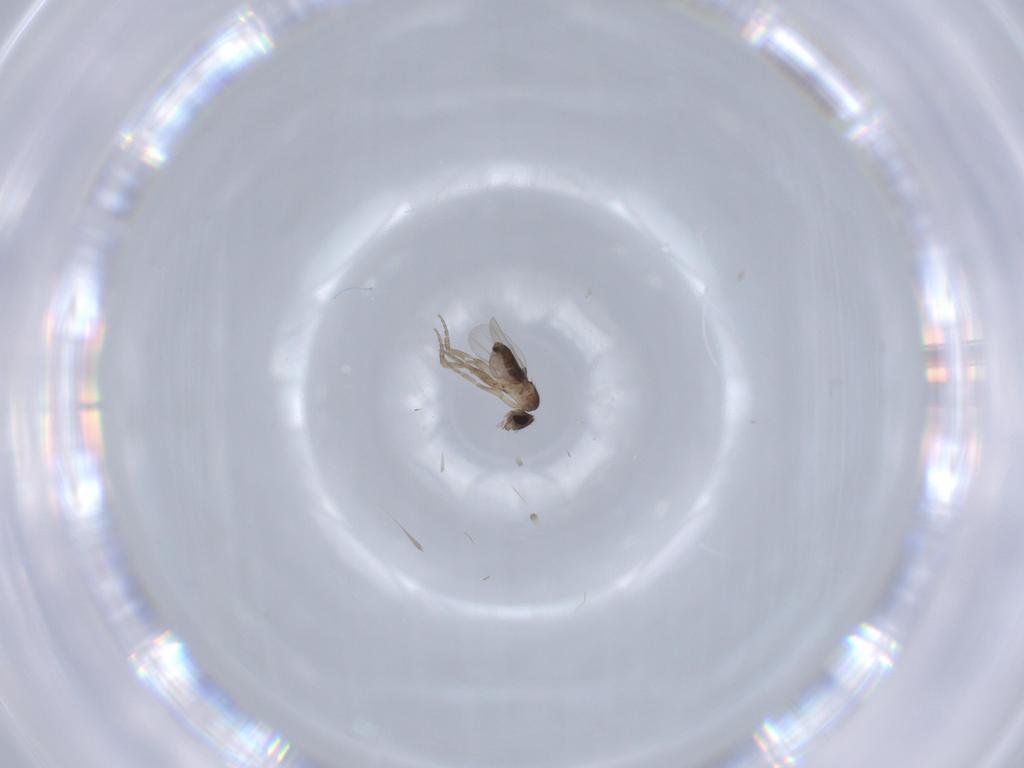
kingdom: Animalia
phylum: Arthropoda
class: Insecta
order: Diptera
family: Phoridae
